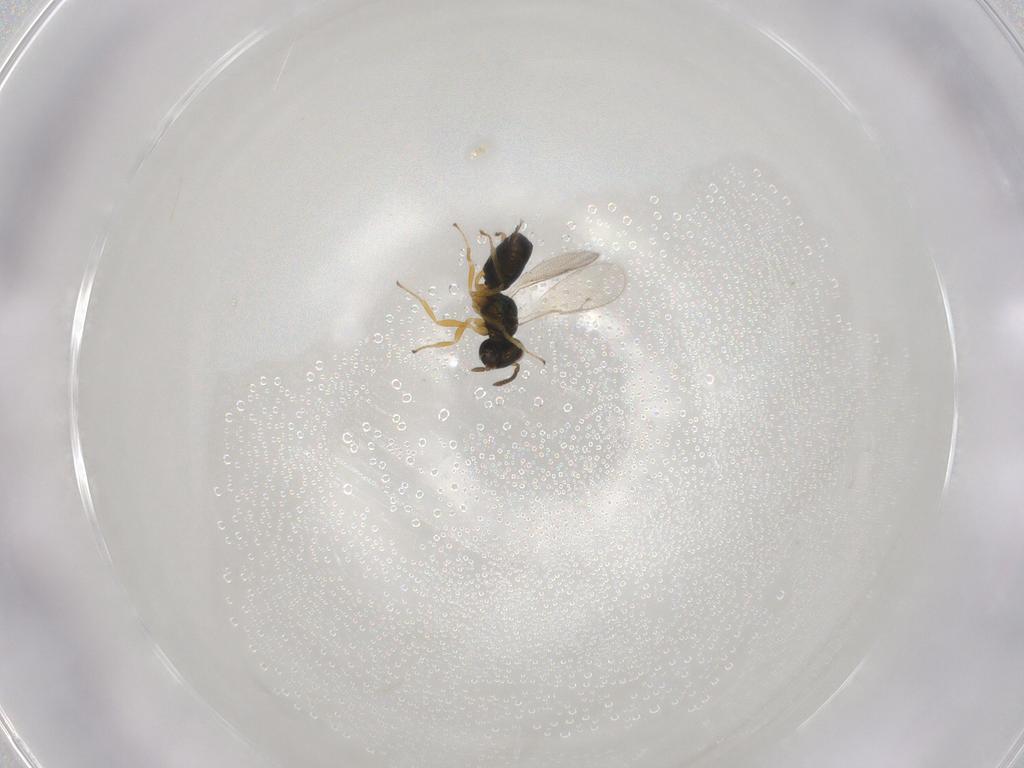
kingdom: Animalia
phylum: Arthropoda
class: Insecta
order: Hymenoptera
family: Pteromalidae
